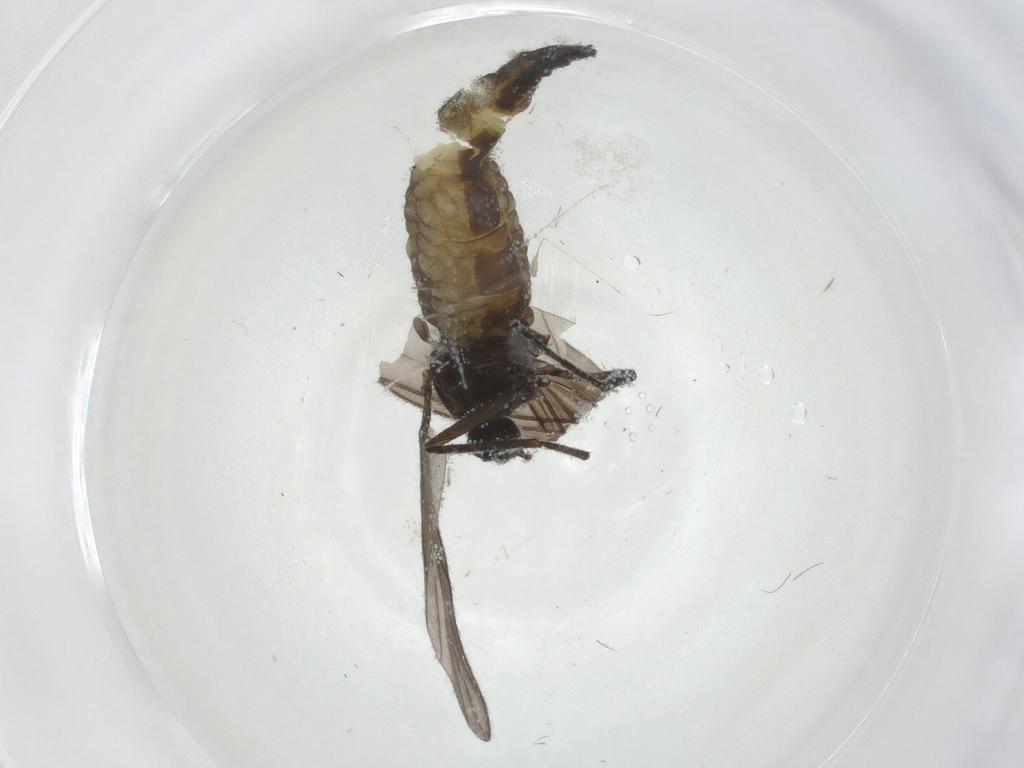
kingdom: Animalia
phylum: Arthropoda
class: Insecta
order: Diptera
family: Sciaridae
